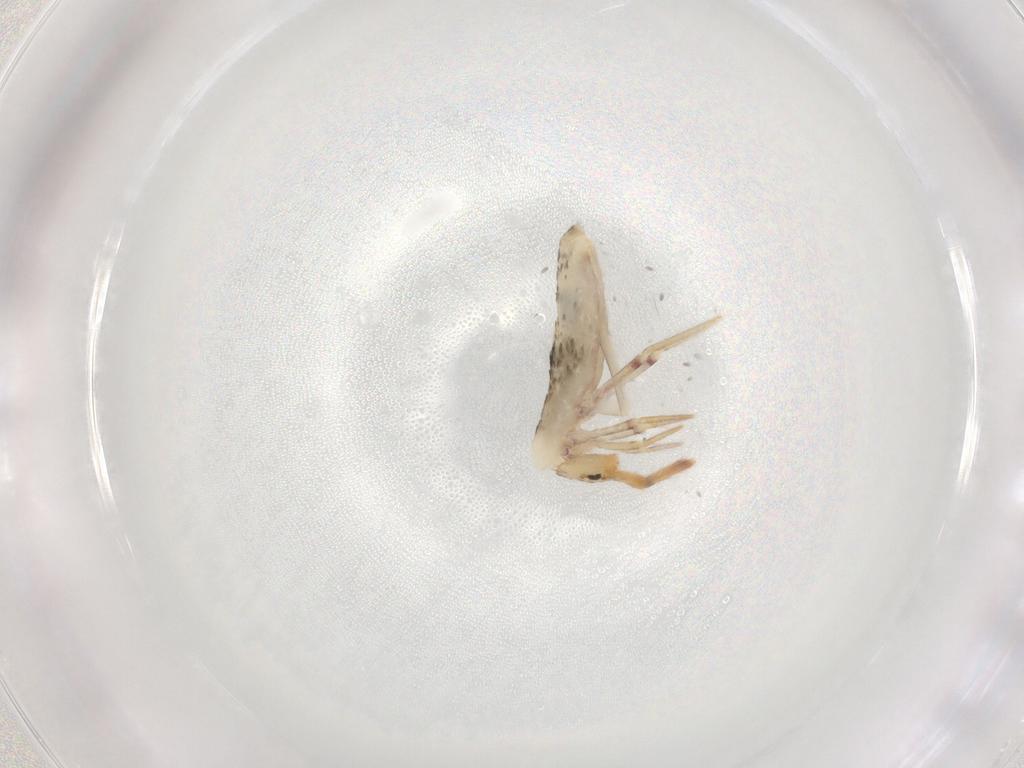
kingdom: Animalia
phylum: Arthropoda
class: Collembola
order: Poduromorpha
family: Hypogastruridae
